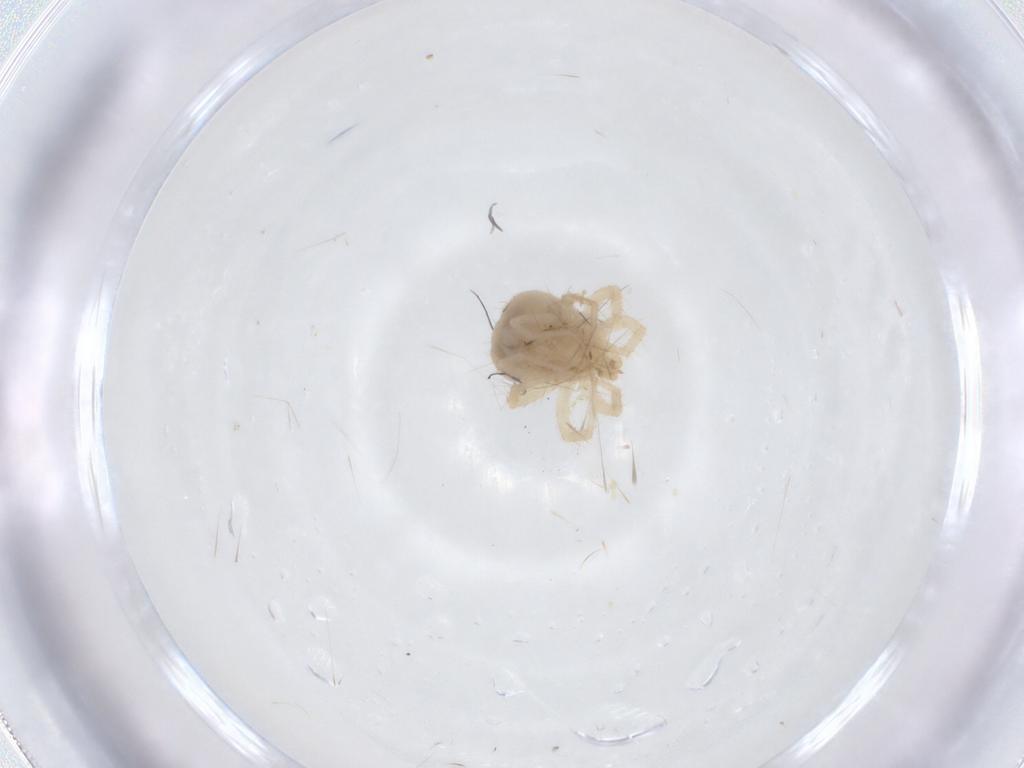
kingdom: Animalia
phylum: Arthropoda
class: Arachnida
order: Trombidiformes
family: Anystidae
